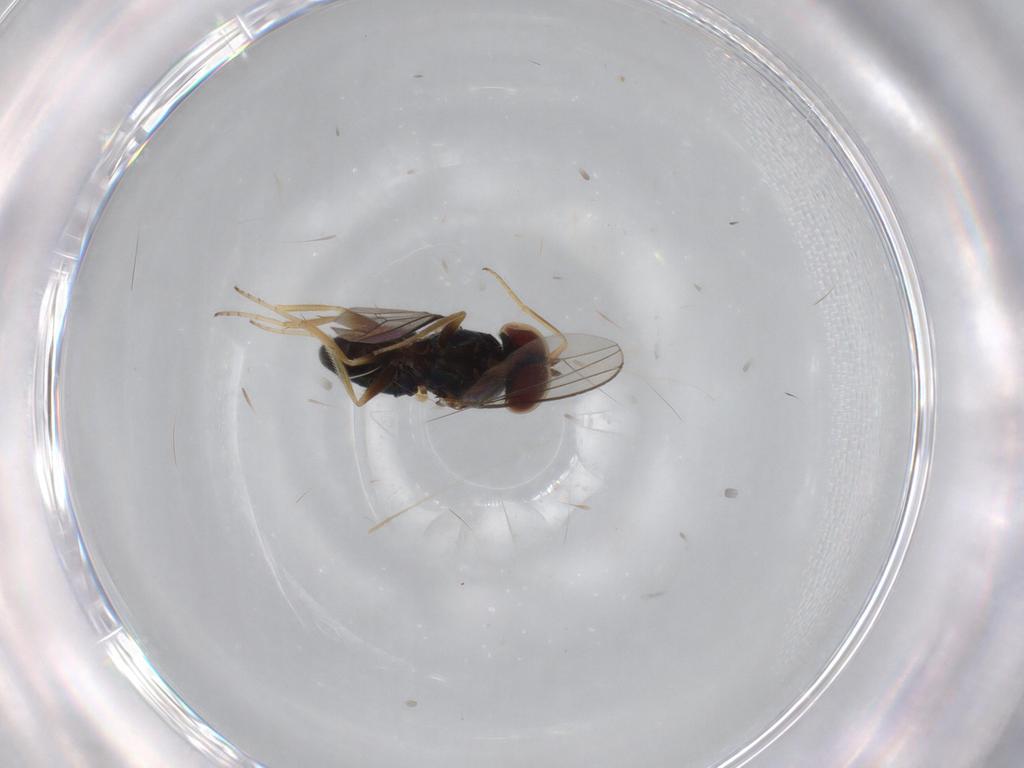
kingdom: Animalia
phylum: Arthropoda
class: Insecta
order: Diptera
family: Dolichopodidae
